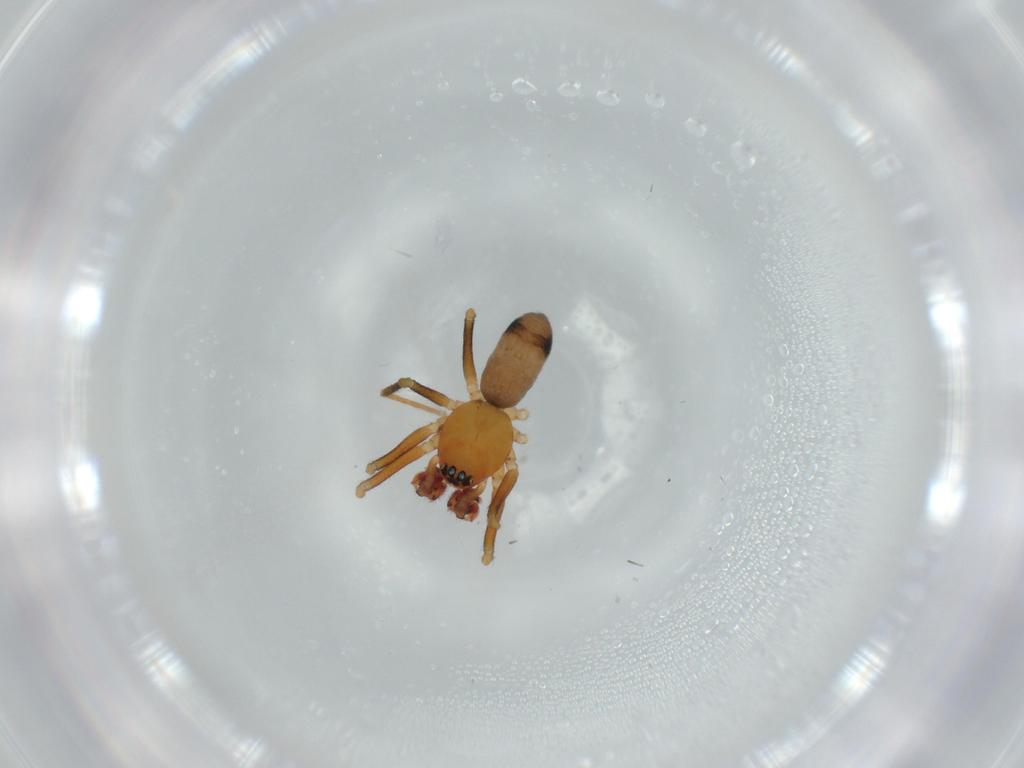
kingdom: Animalia
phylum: Arthropoda
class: Arachnida
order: Araneae
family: Linyphiidae
